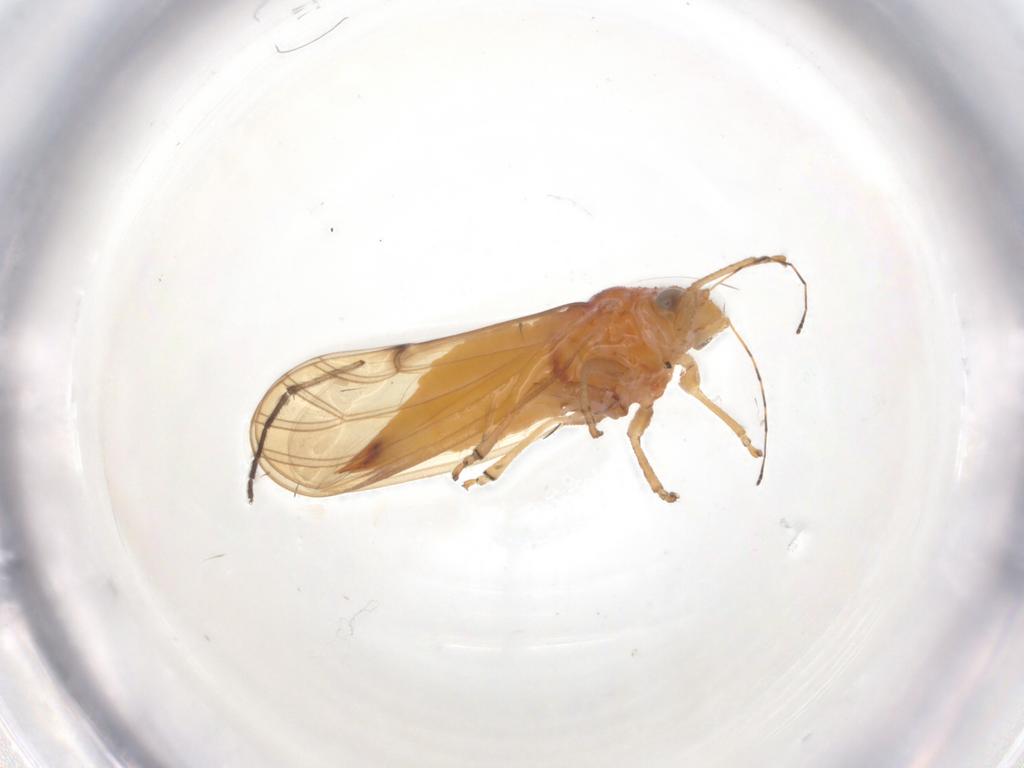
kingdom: Animalia
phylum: Arthropoda
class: Insecta
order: Diptera
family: Chironomidae
